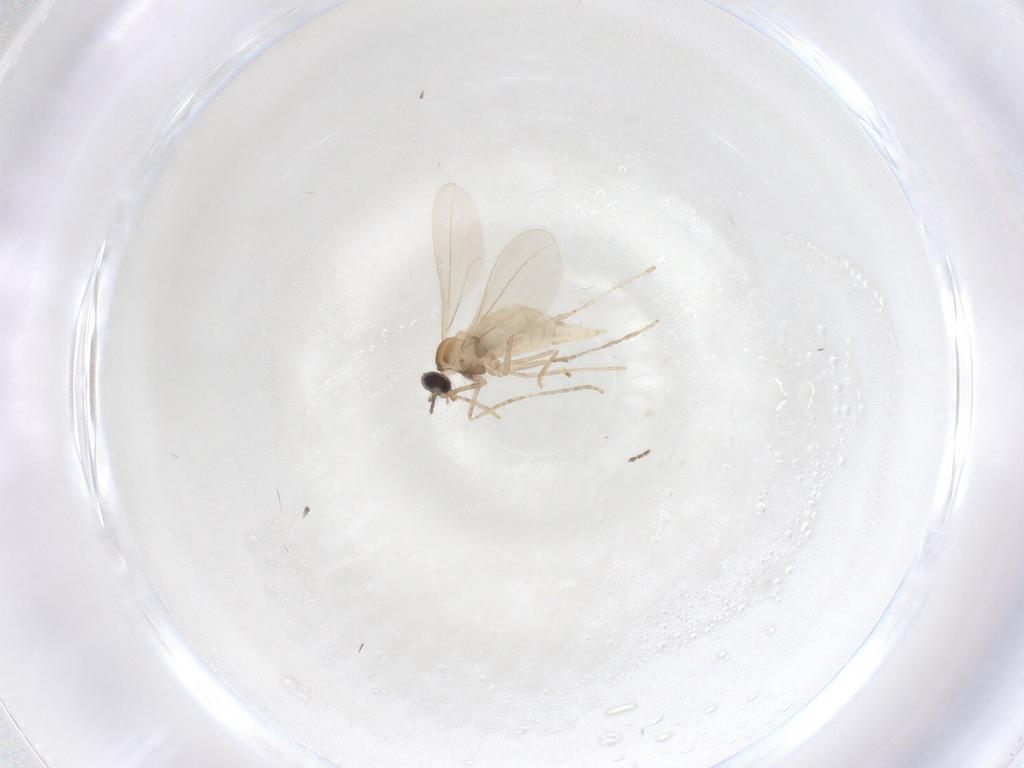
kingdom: Animalia
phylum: Arthropoda
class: Insecta
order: Diptera
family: Cecidomyiidae
